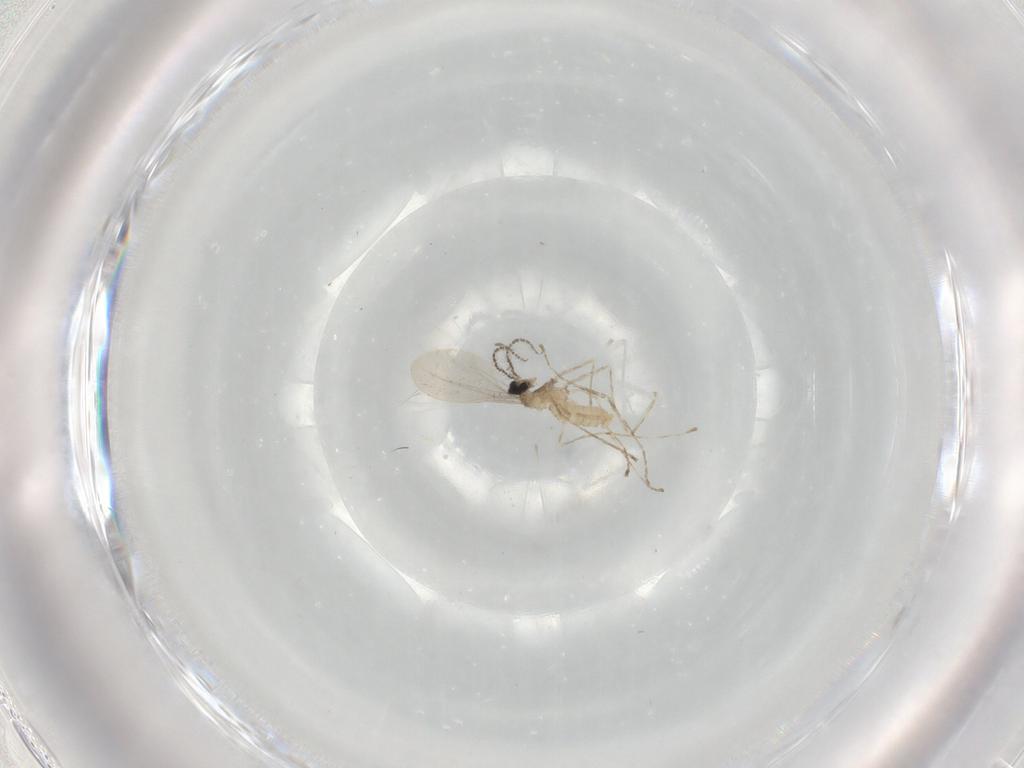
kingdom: Animalia
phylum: Arthropoda
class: Insecta
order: Diptera
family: Cecidomyiidae
